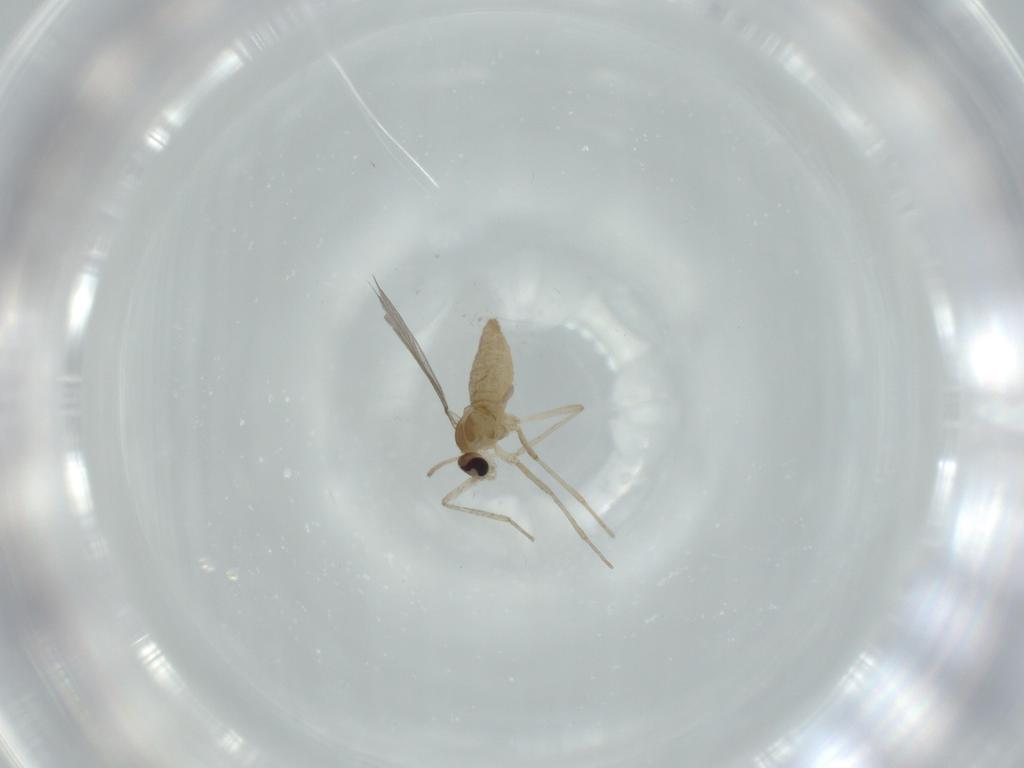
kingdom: Animalia
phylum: Arthropoda
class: Insecta
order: Diptera
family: Cecidomyiidae
